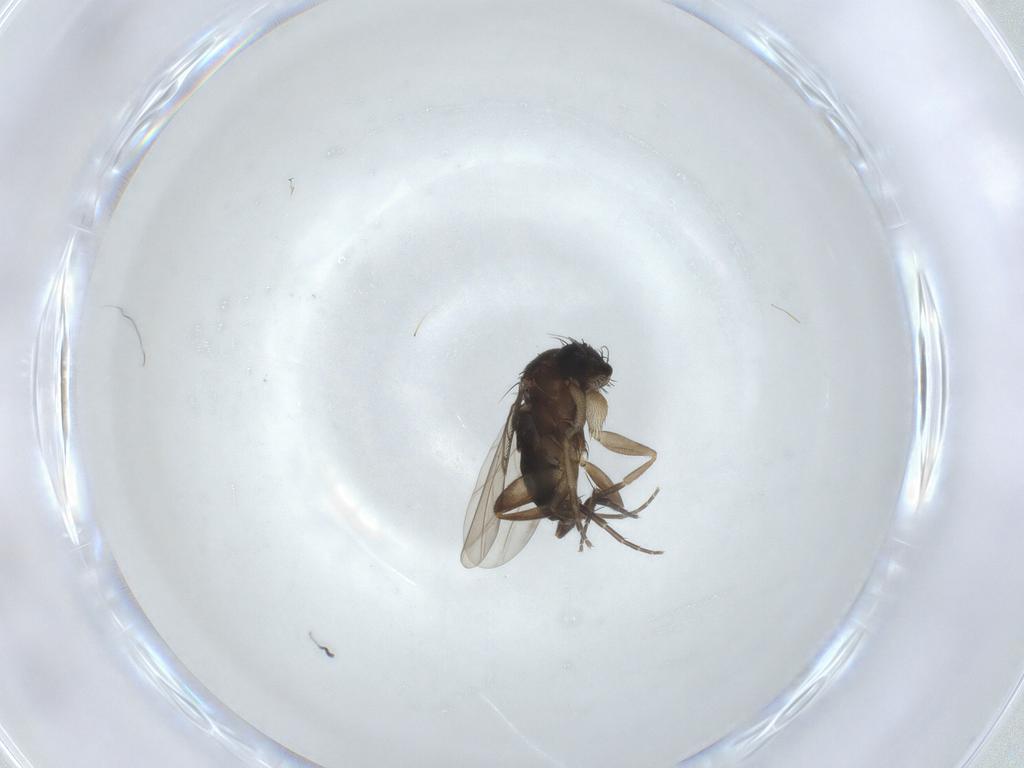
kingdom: Animalia
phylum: Arthropoda
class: Insecta
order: Diptera
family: Phoridae
